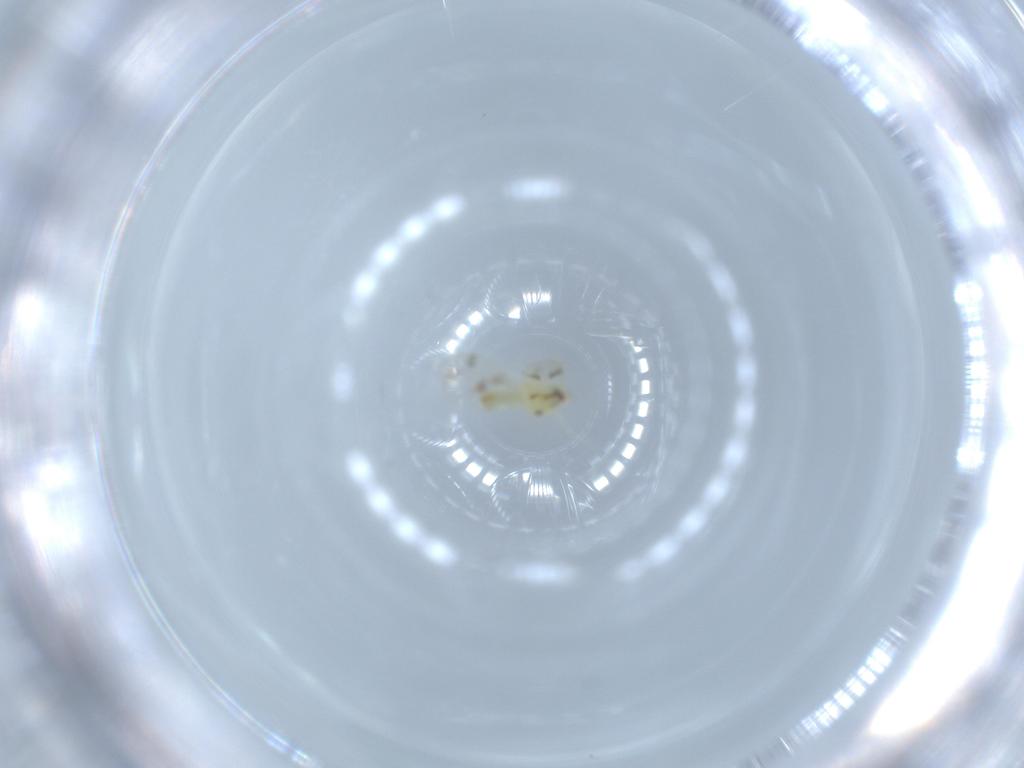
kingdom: Animalia
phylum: Arthropoda
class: Insecta
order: Hemiptera
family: Aleyrodidae
